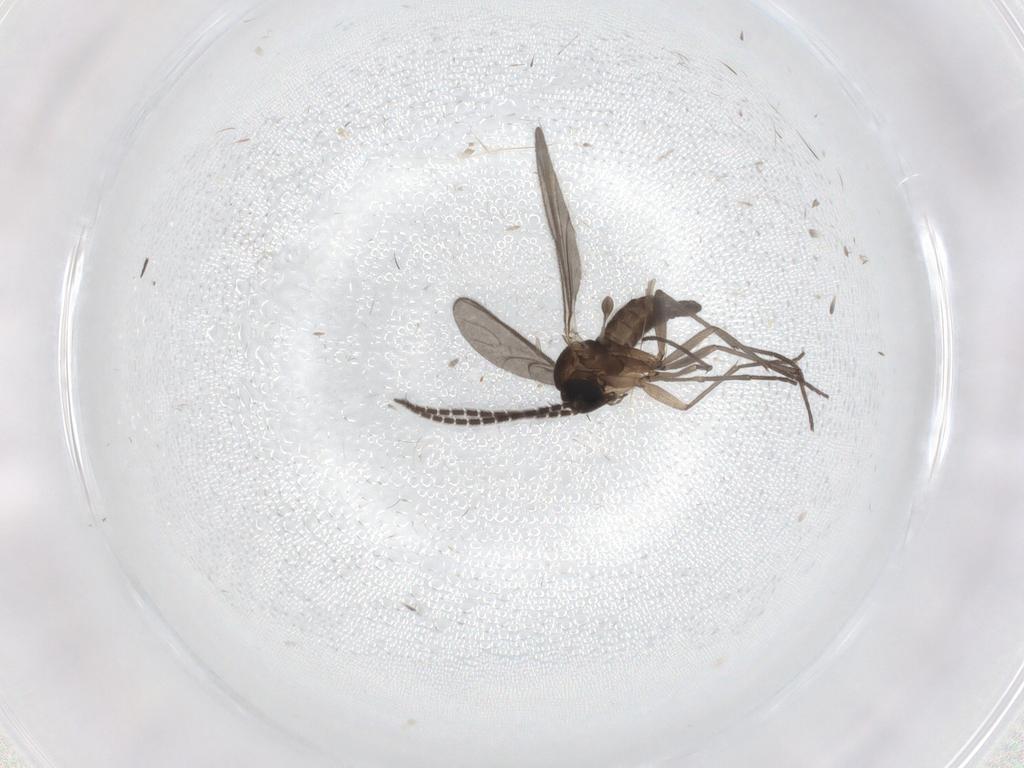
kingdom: Animalia
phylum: Arthropoda
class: Insecta
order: Diptera
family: Sciaridae
